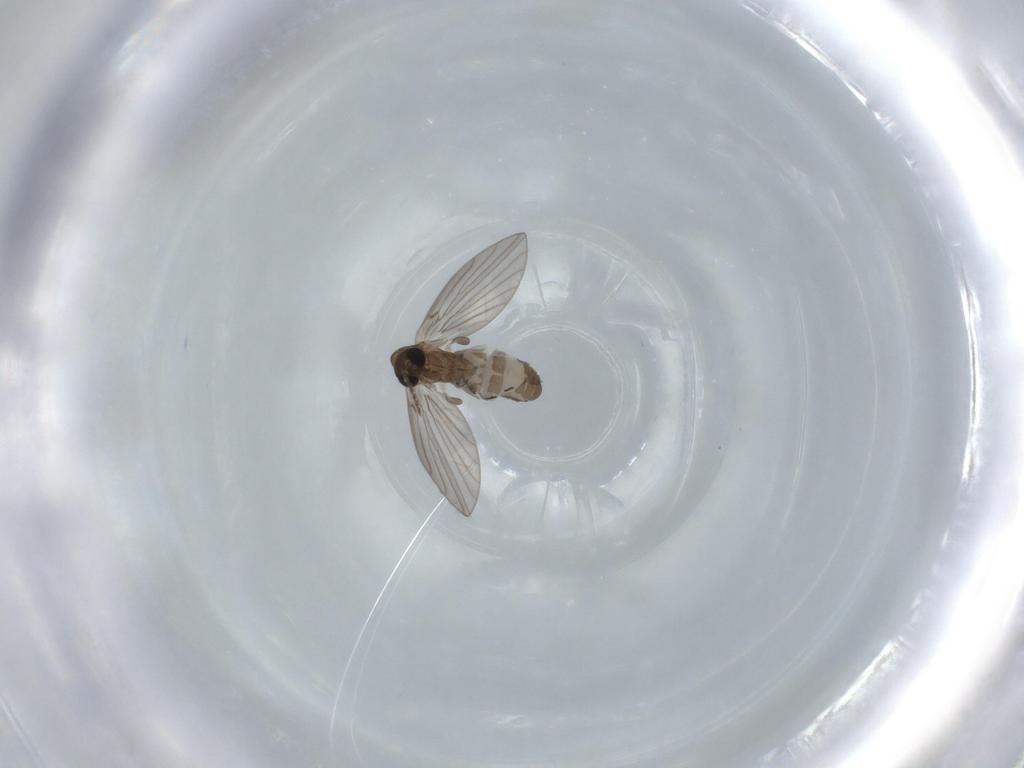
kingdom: Animalia
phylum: Arthropoda
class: Insecta
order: Diptera
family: Psychodidae
